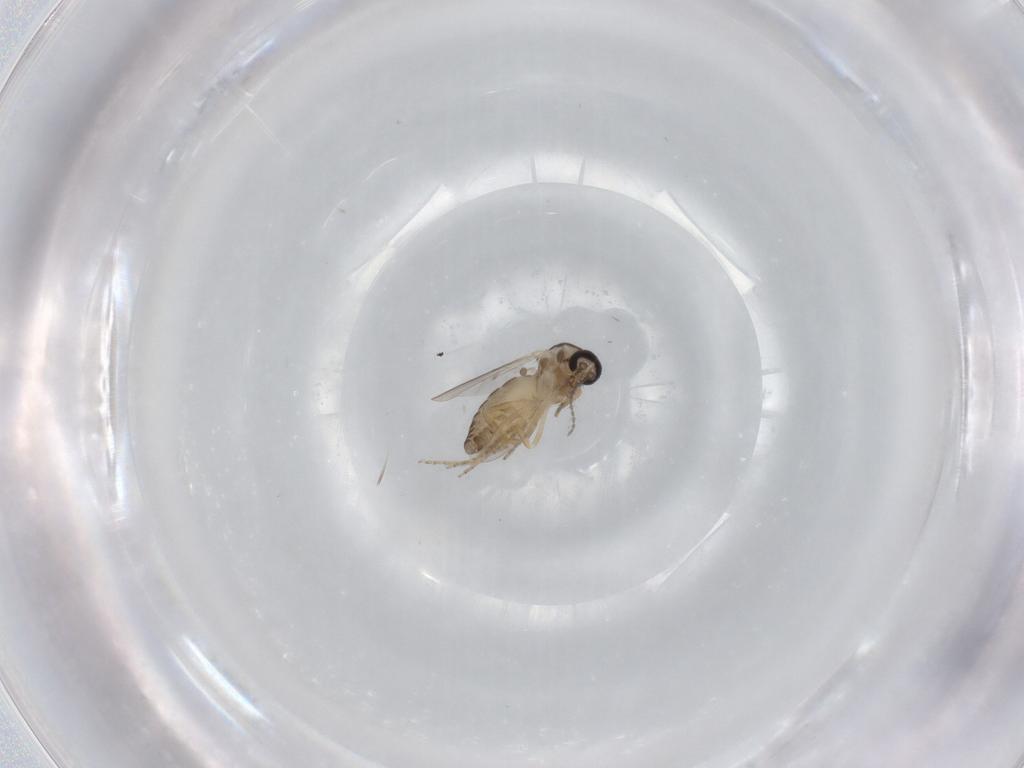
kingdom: Animalia
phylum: Arthropoda
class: Insecta
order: Diptera
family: Ceratopogonidae
